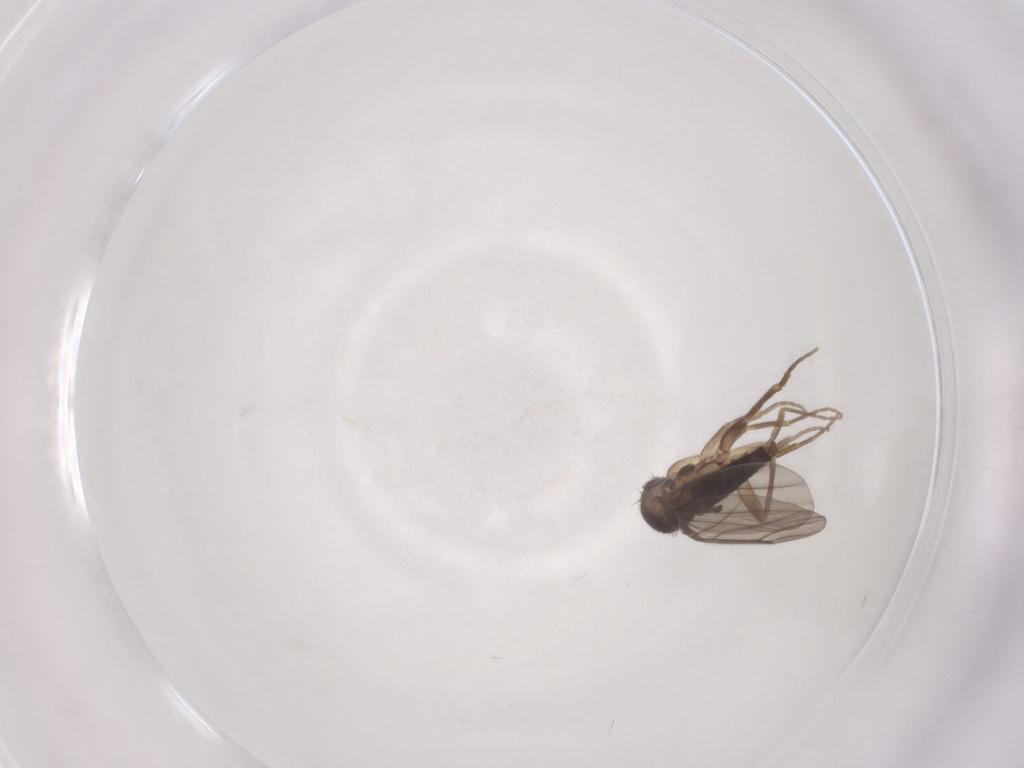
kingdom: Animalia
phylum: Arthropoda
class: Insecta
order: Diptera
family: Phoridae
